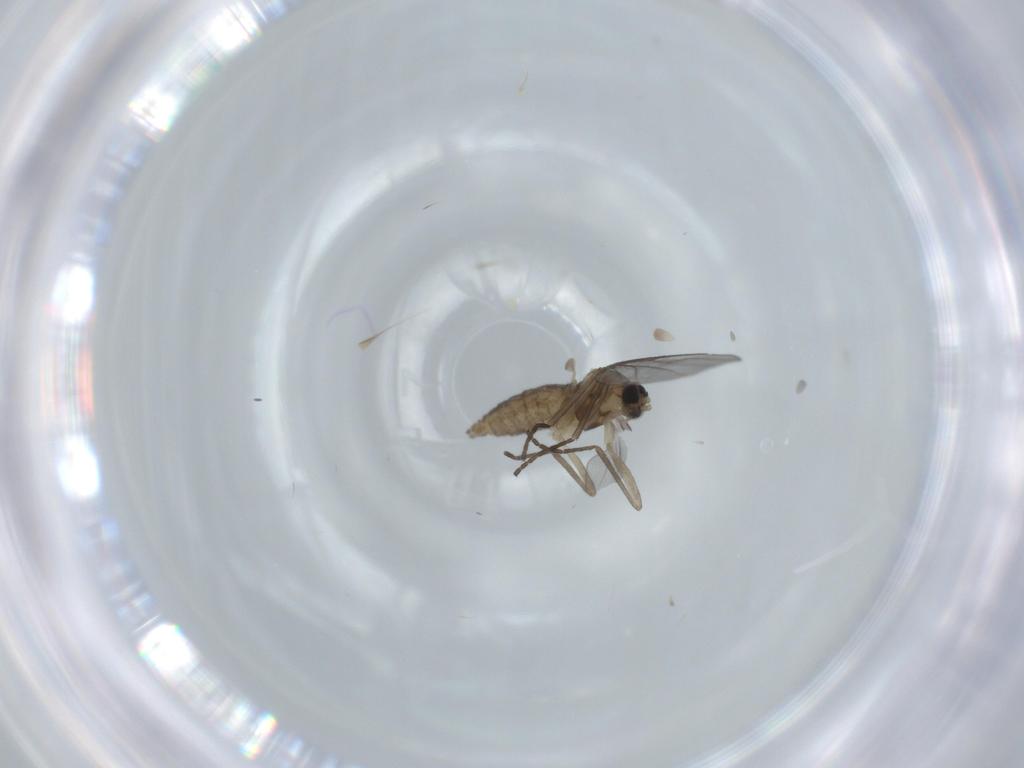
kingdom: Animalia
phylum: Arthropoda
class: Insecta
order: Diptera
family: Cecidomyiidae
